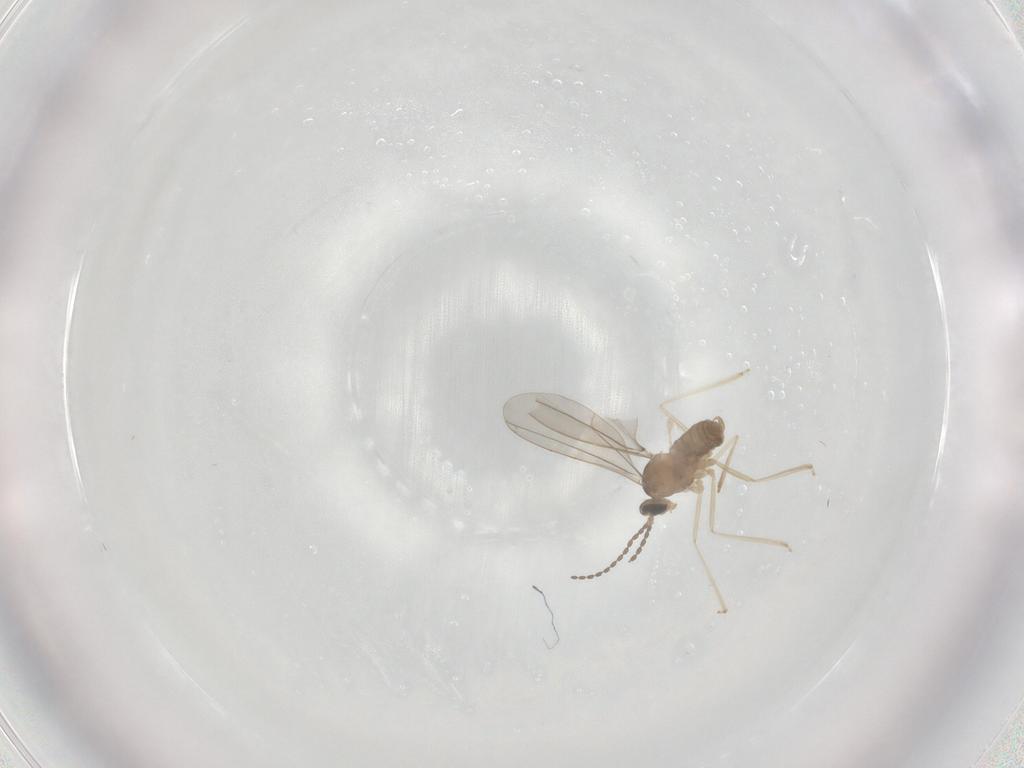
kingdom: Animalia
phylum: Arthropoda
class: Insecta
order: Diptera
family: Cecidomyiidae
